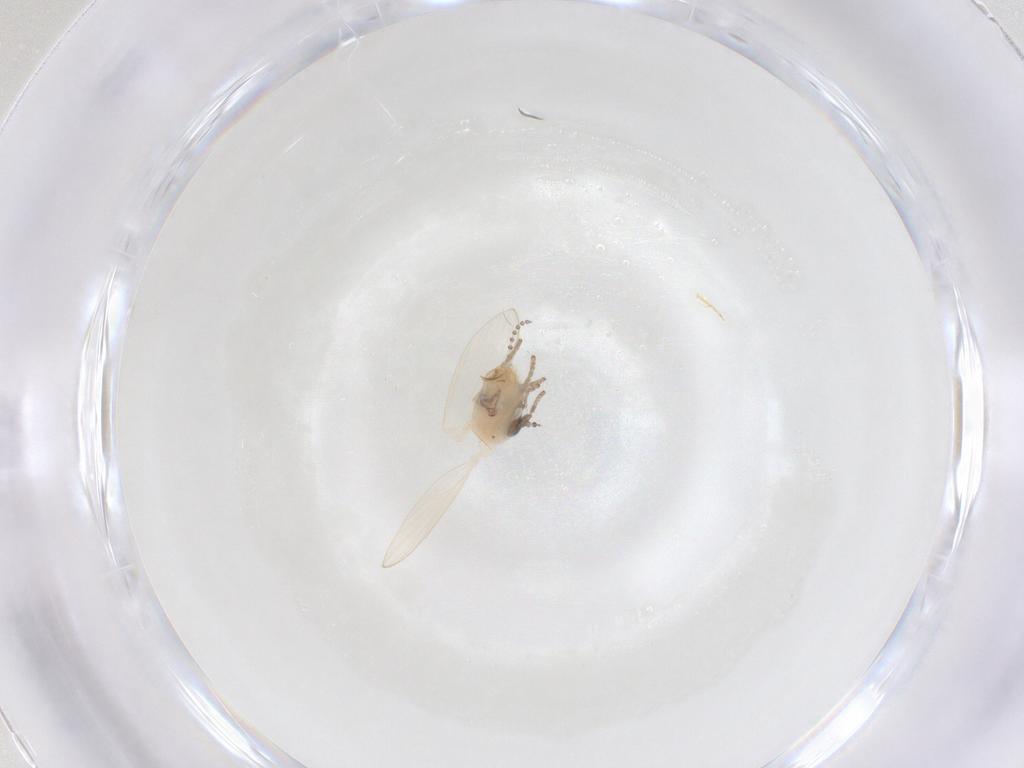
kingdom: Animalia
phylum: Arthropoda
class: Insecta
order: Diptera
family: Psychodidae
